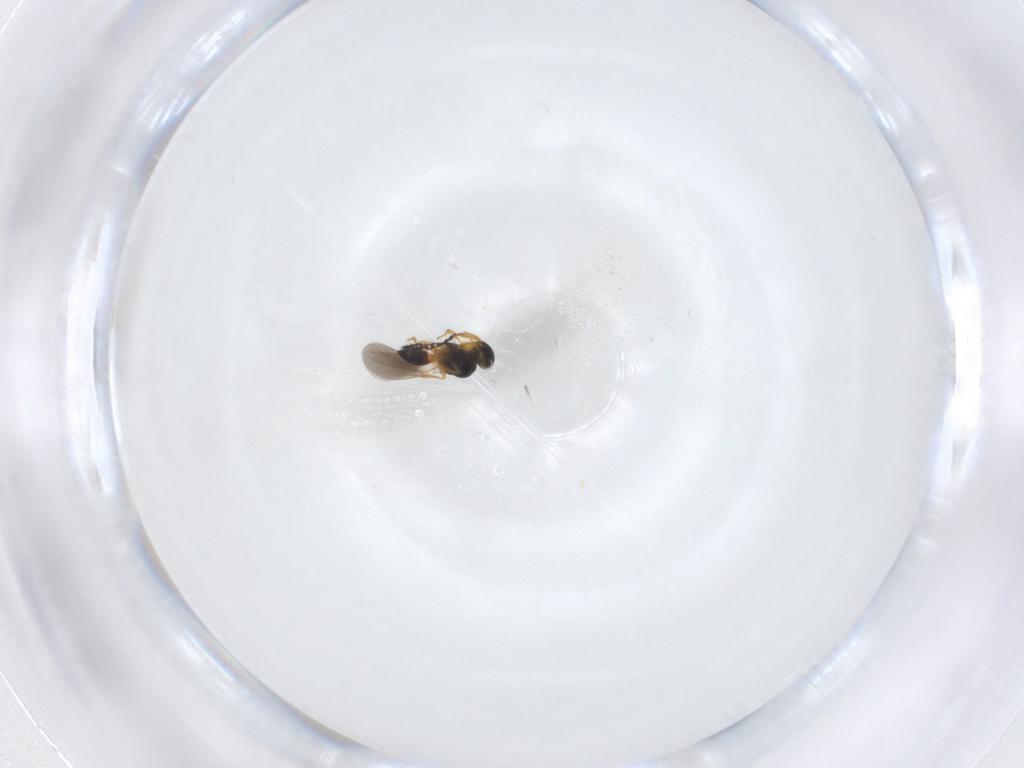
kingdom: Animalia
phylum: Arthropoda
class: Insecta
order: Hymenoptera
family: Platygastridae
